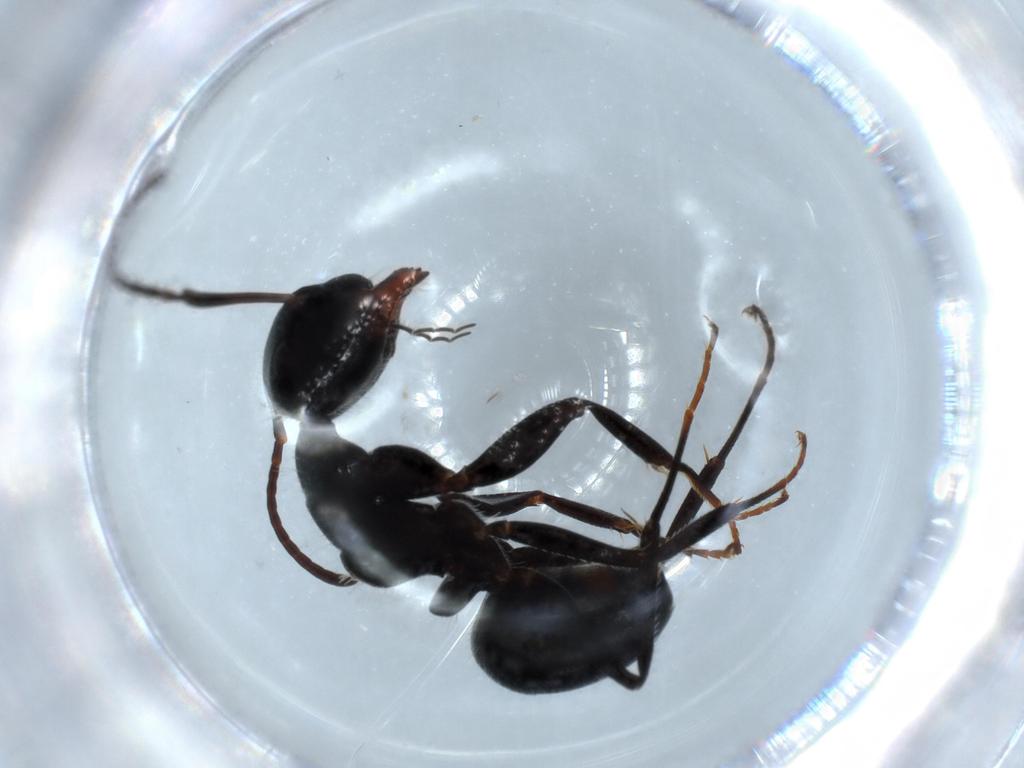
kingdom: Animalia
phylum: Arthropoda
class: Insecta
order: Hymenoptera
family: Formicidae
